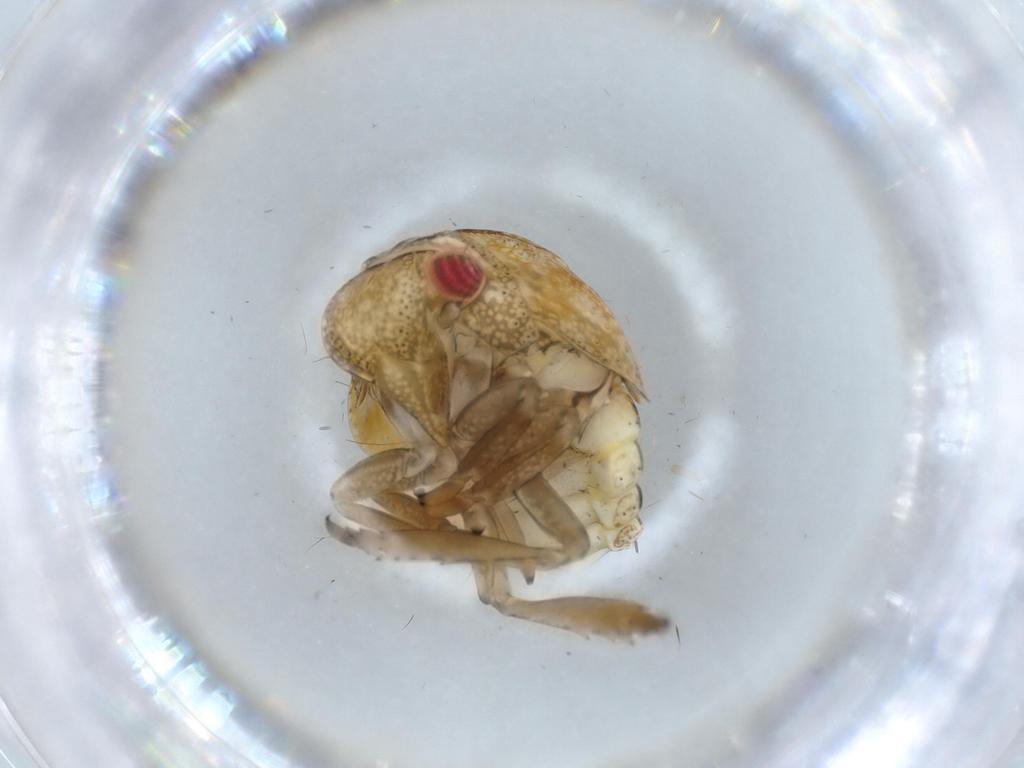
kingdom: Animalia
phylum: Arthropoda
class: Insecta
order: Hemiptera
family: Acanaloniidae
